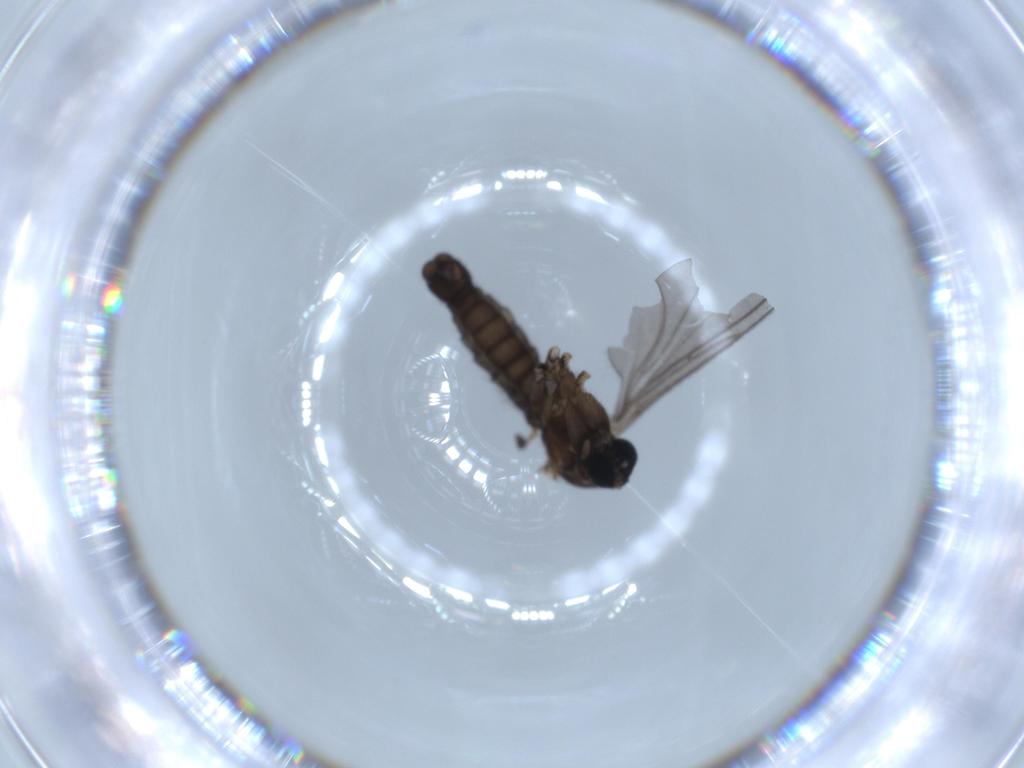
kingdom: Animalia
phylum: Arthropoda
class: Insecta
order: Diptera
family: Sciaridae
